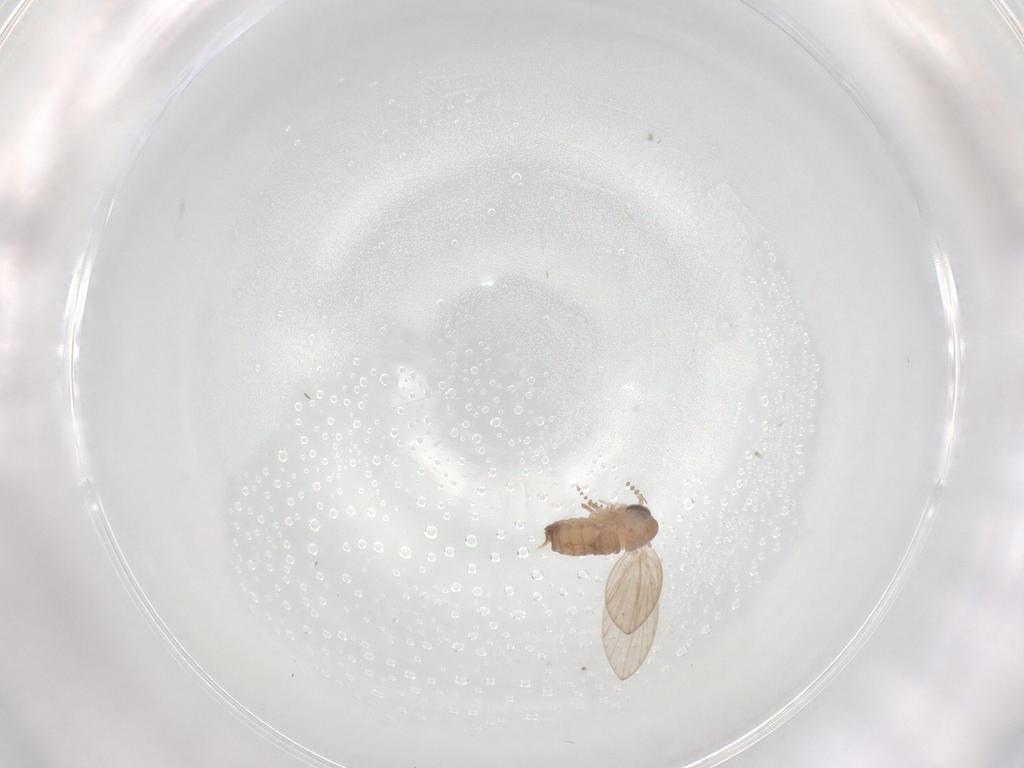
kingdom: Animalia
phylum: Arthropoda
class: Insecta
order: Diptera
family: Psychodidae
